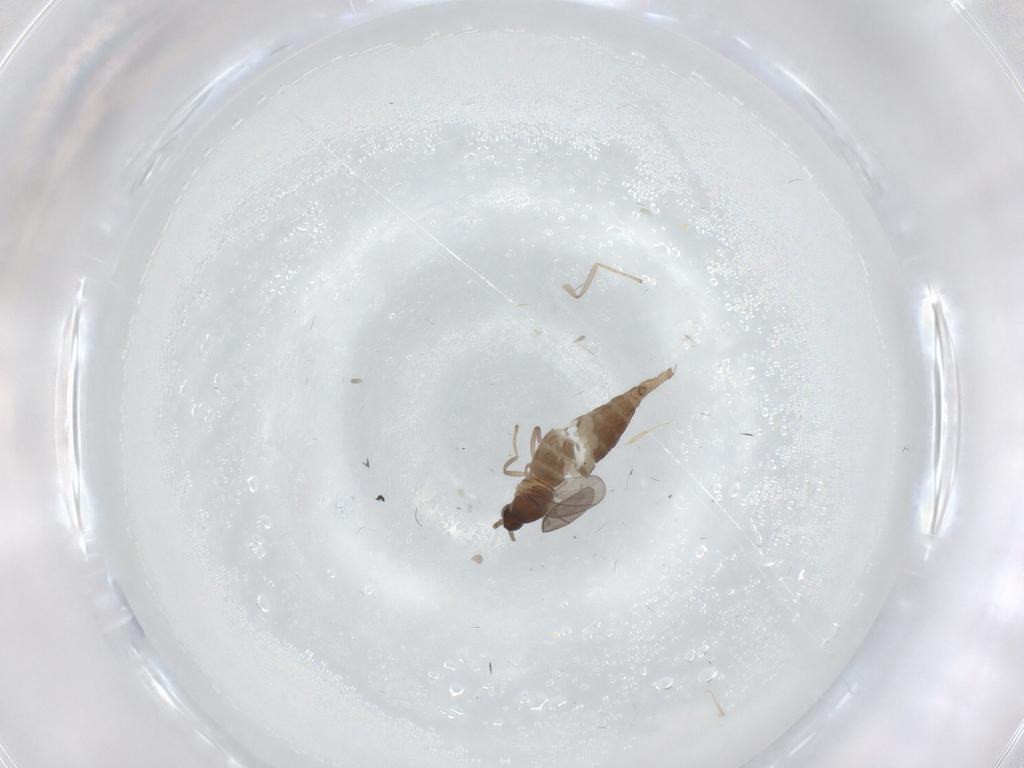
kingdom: Animalia
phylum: Arthropoda
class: Insecta
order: Diptera
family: Cecidomyiidae
